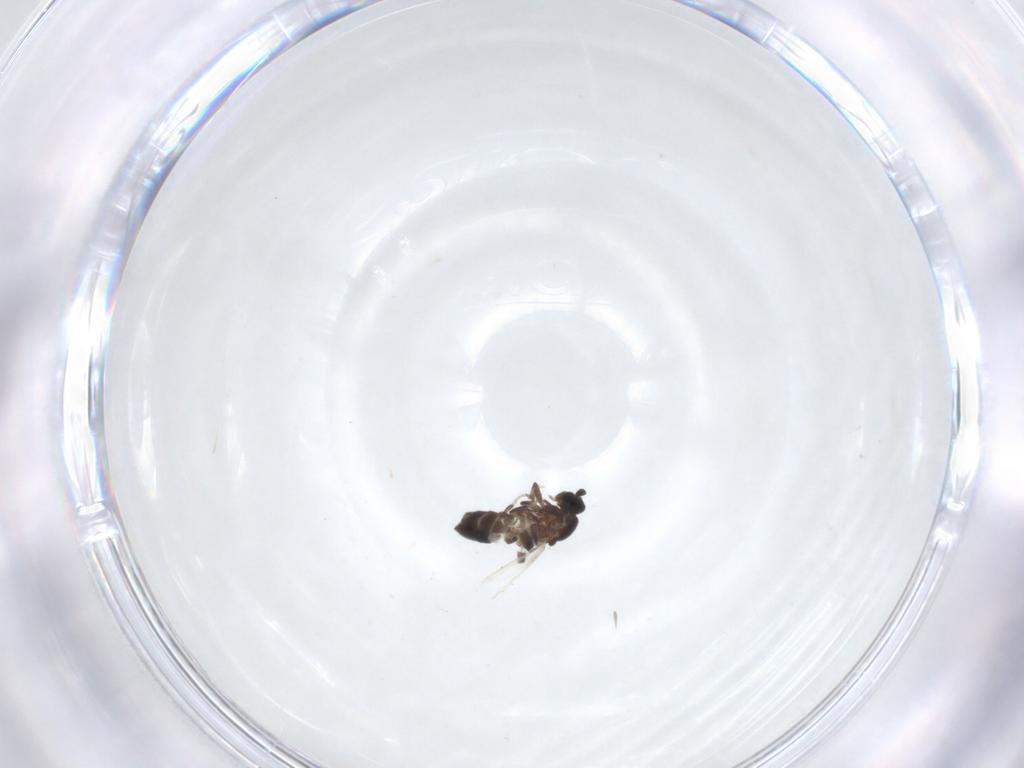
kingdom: Animalia
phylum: Arthropoda
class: Insecta
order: Diptera
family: Scatopsidae
